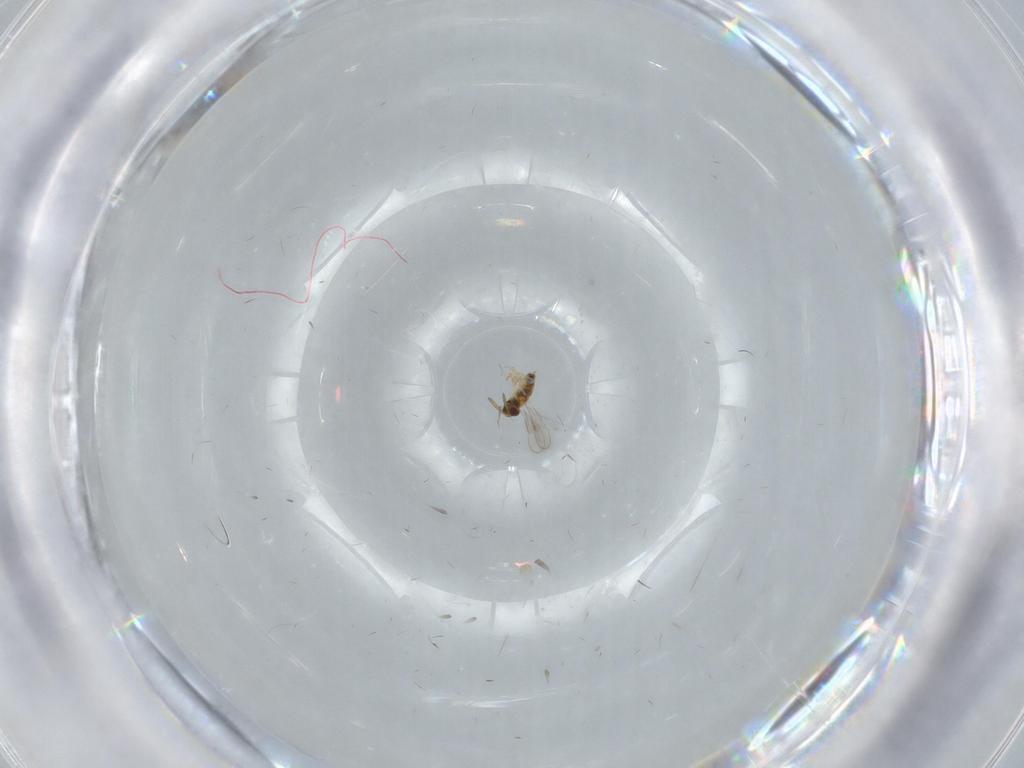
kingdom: Animalia
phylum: Arthropoda
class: Insecta
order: Hymenoptera
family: Aphelinidae
